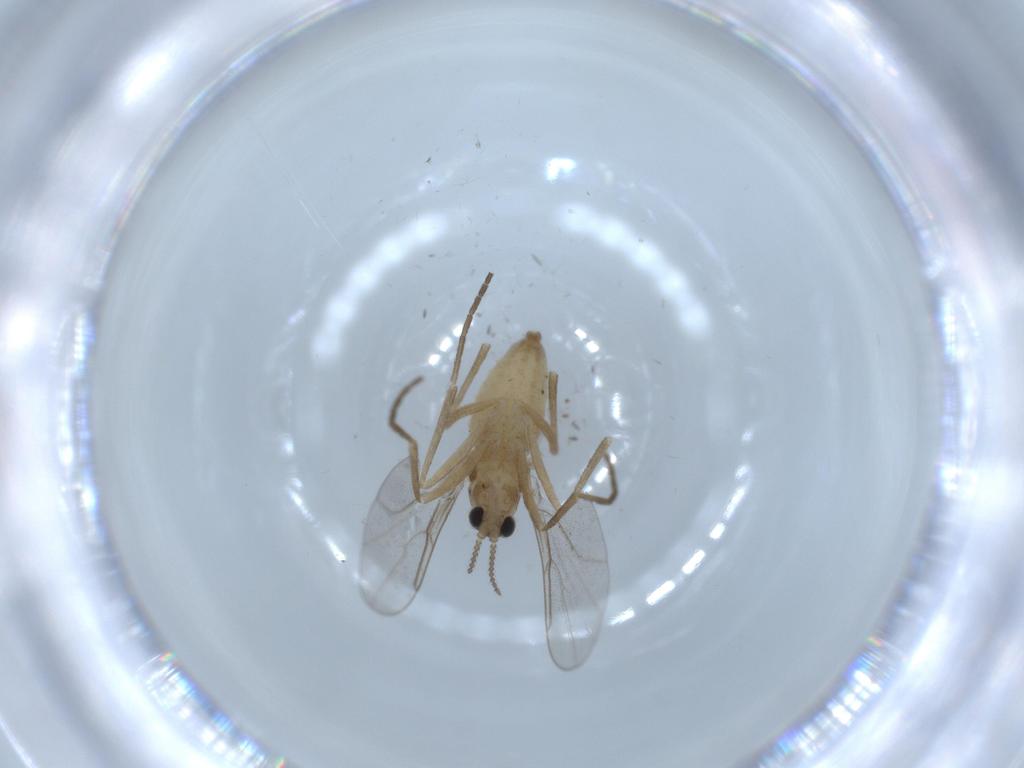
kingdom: Animalia
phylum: Arthropoda
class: Insecta
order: Diptera
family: Cecidomyiidae
